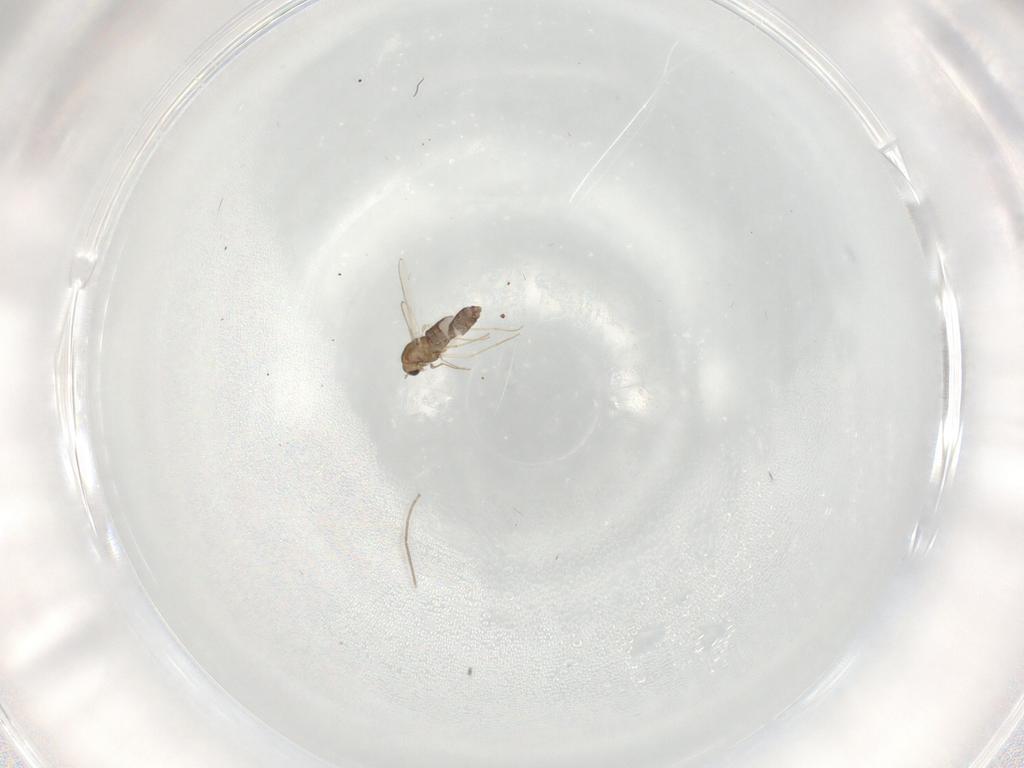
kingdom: Animalia
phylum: Arthropoda
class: Insecta
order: Diptera
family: Chironomidae
